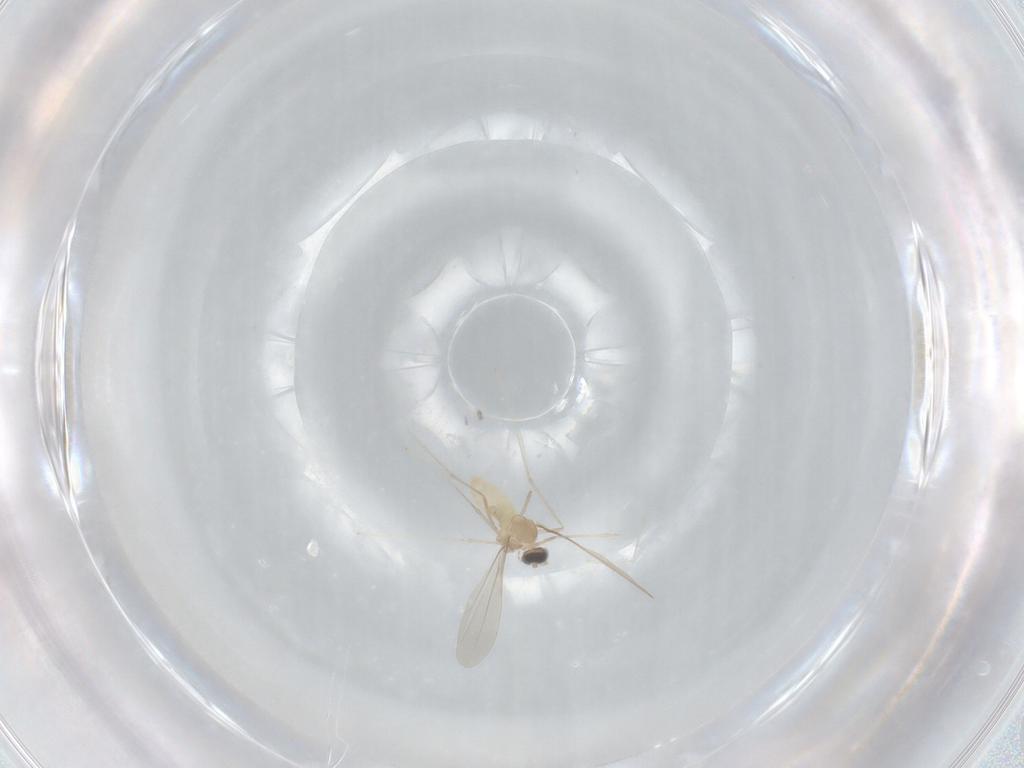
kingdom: Animalia
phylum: Arthropoda
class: Insecta
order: Diptera
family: Cecidomyiidae
